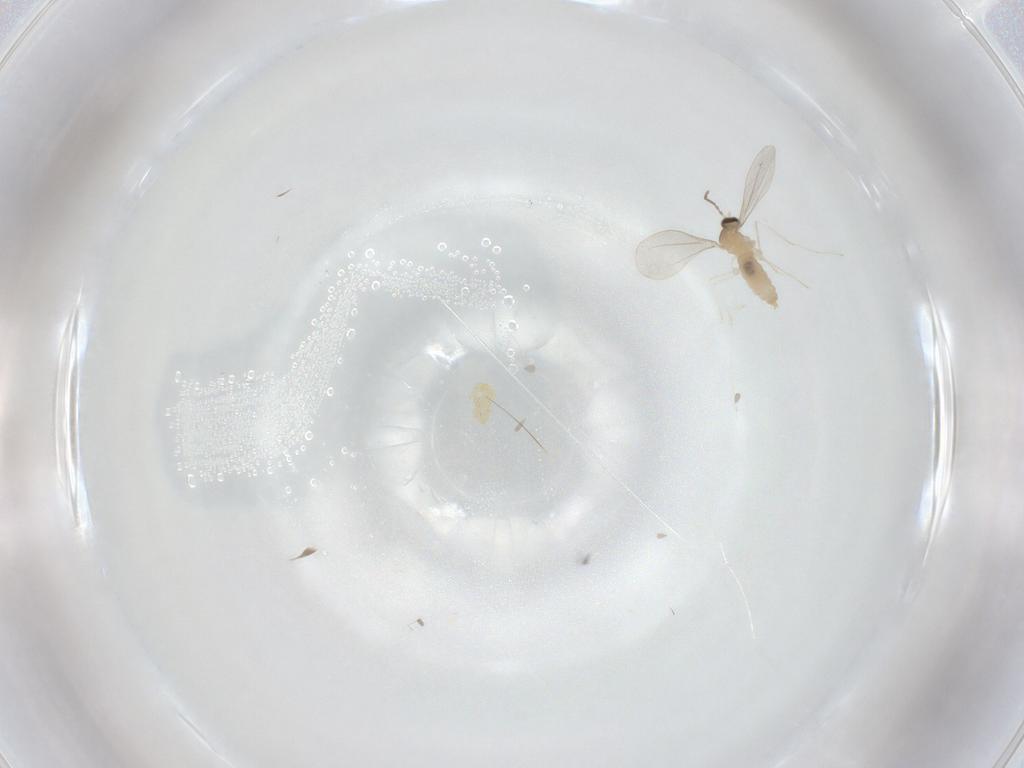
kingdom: Animalia
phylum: Arthropoda
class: Insecta
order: Diptera
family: Cecidomyiidae
